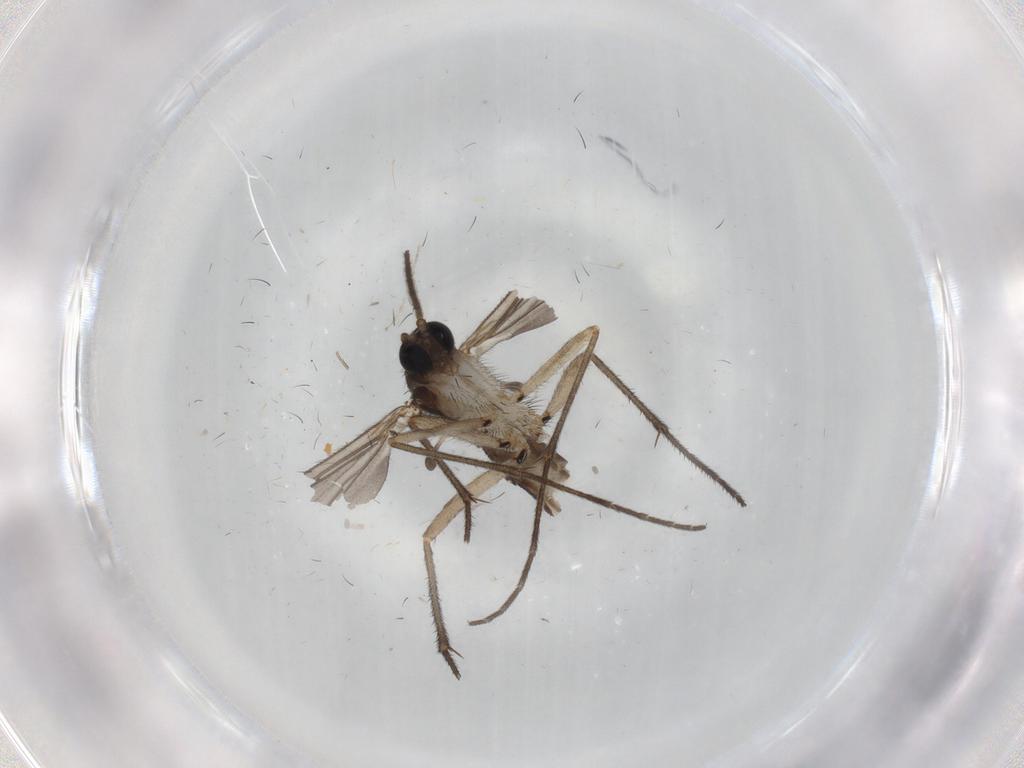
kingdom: Animalia
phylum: Arthropoda
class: Insecta
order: Diptera
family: Sciaridae
